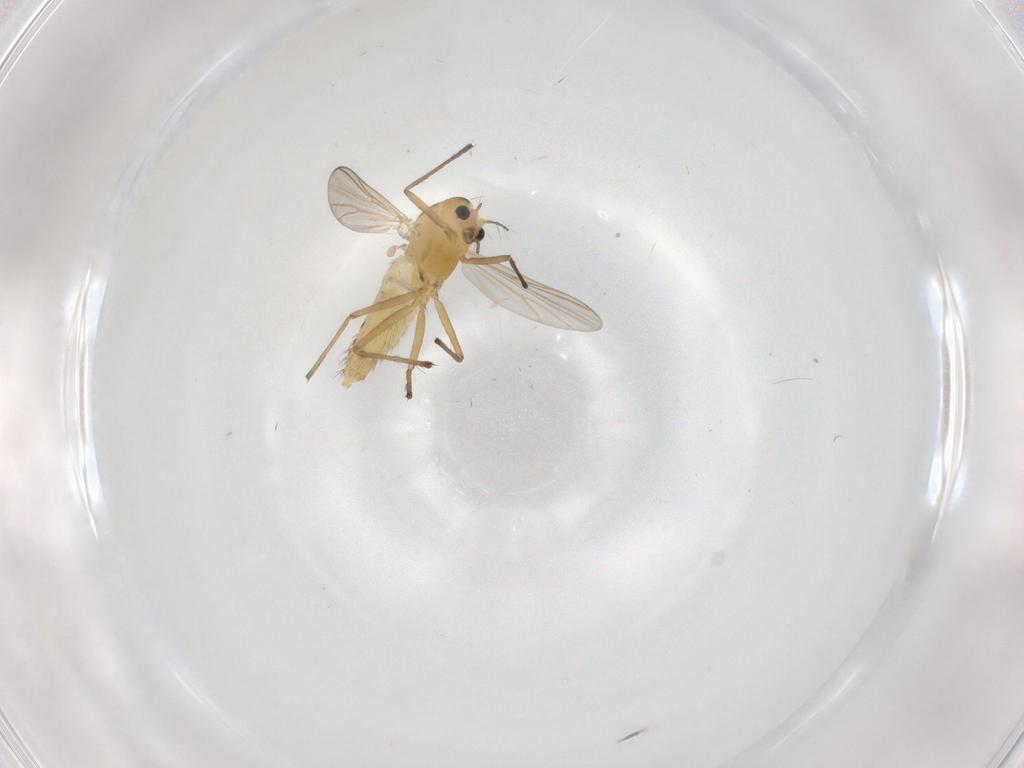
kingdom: Animalia
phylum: Arthropoda
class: Insecta
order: Diptera
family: Chironomidae
